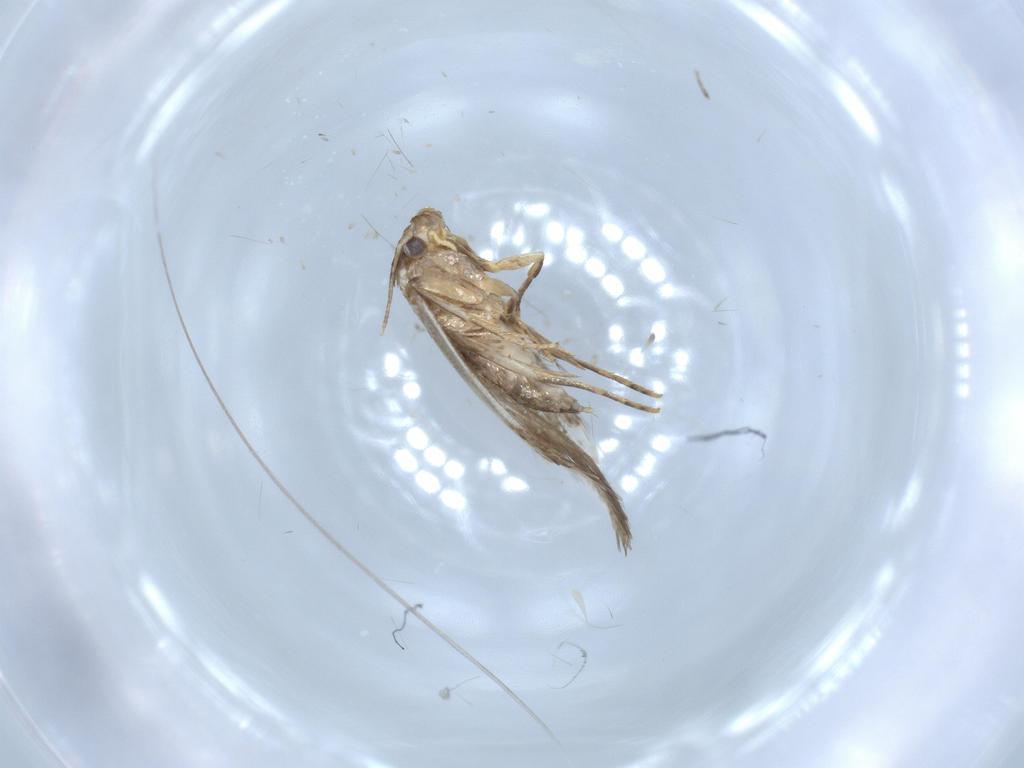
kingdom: Animalia
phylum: Arthropoda
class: Insecta
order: Lepidoptera
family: Tineidae
